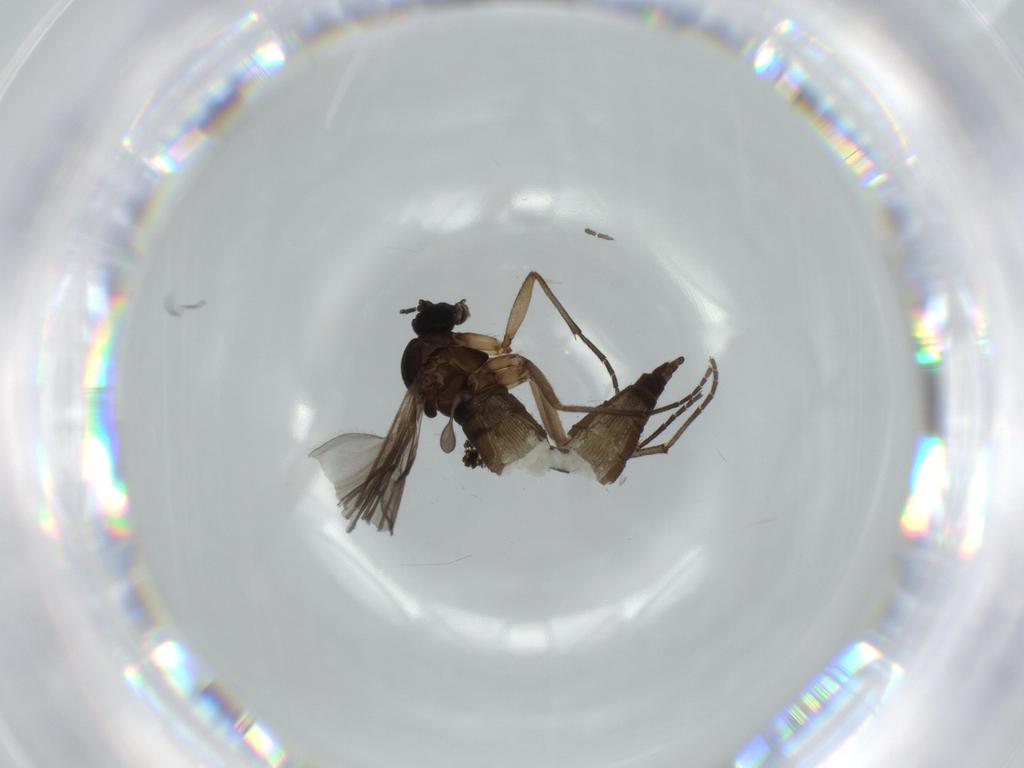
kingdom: Animalia
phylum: Arthropoda
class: Insecta
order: Diptera
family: Sciaridae
